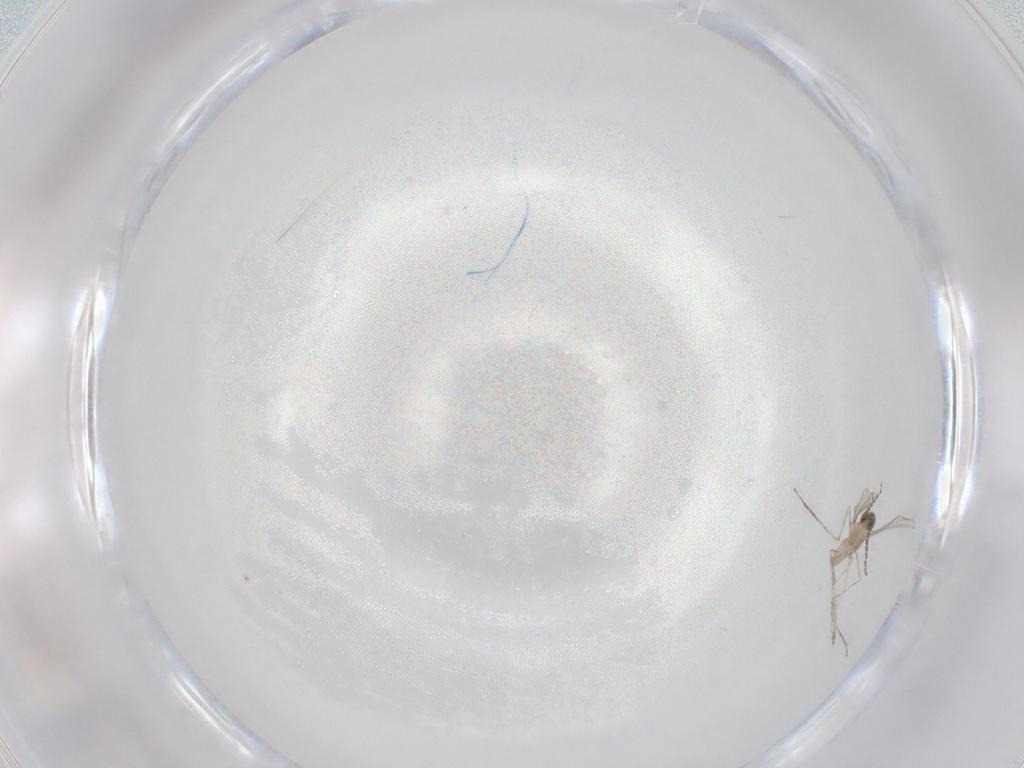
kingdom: Animalia
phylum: Arthropoda
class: Insecta
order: Diptera
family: Cecidomyiidae
